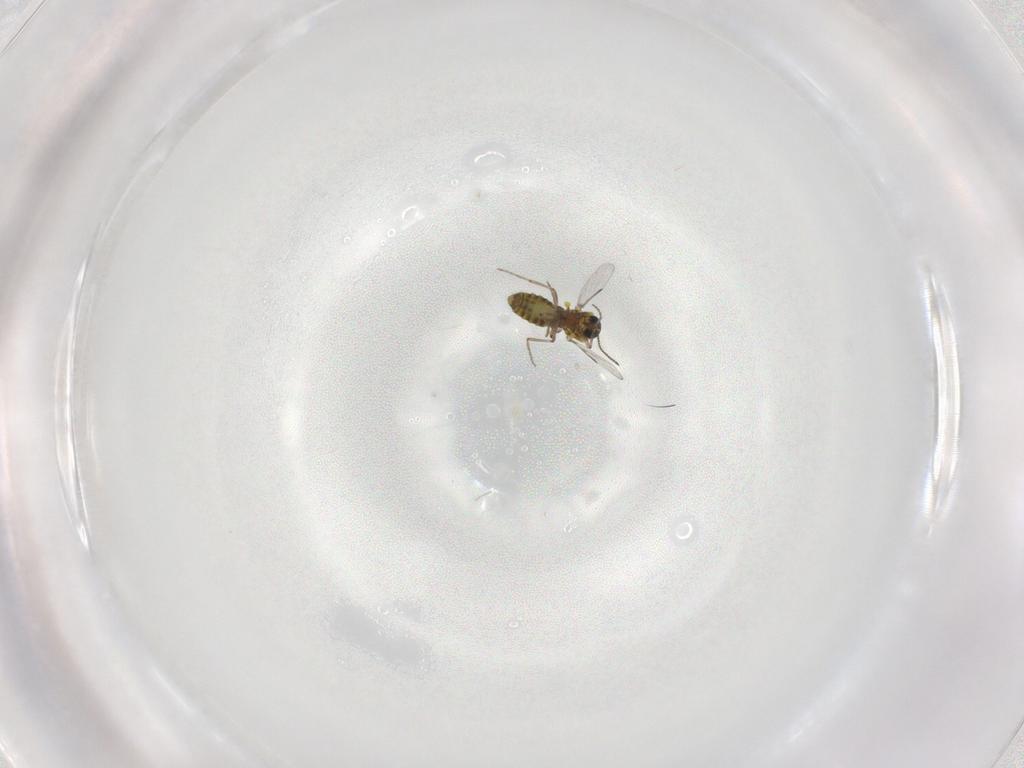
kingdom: Animalia
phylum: Arthropoda
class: Insecta
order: Diptera
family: Ceratopogonidae
